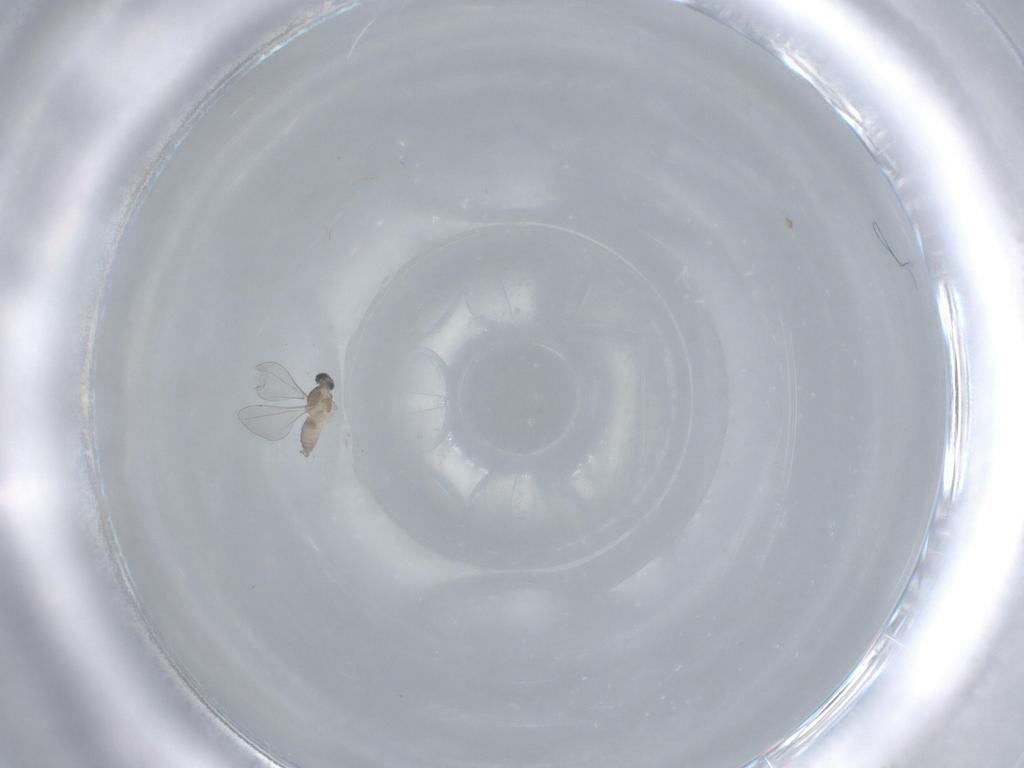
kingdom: Animalia
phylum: Arthropoda
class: Insecta
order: Diptera
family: Cecidomyiidae
